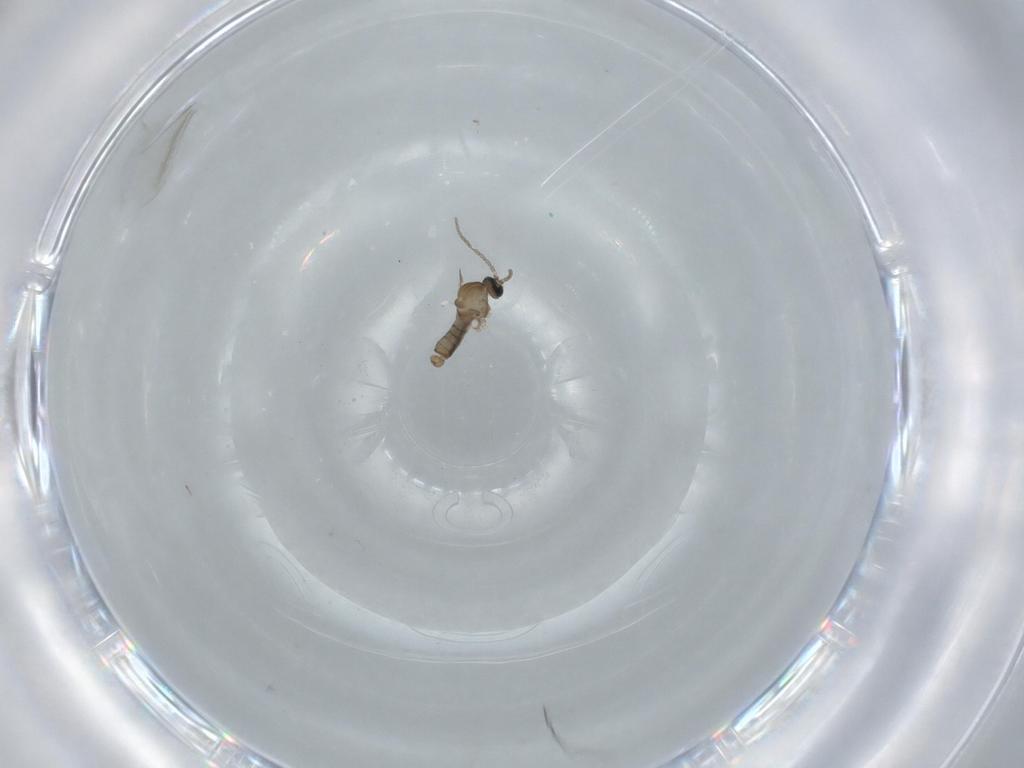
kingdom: Animalia
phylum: Arthropoda
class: Insecta
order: Diptera
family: Cecidomyiidae
